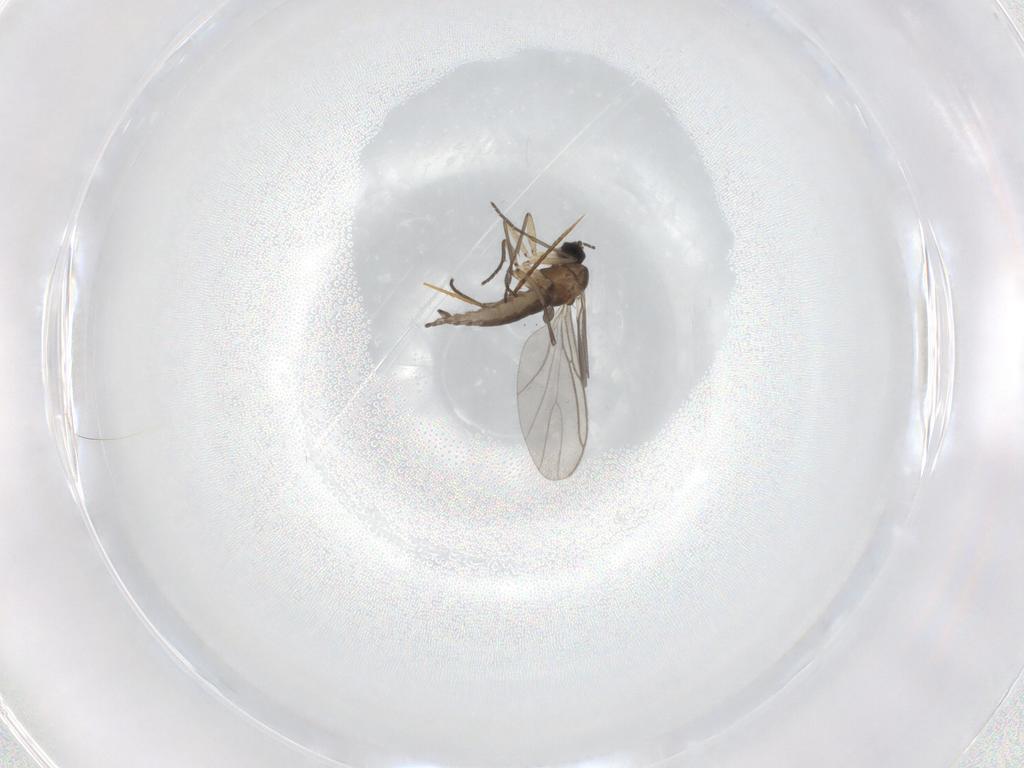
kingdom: Animalia
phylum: Arthropoda
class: Insecta
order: Diptera
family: Sciaridae
